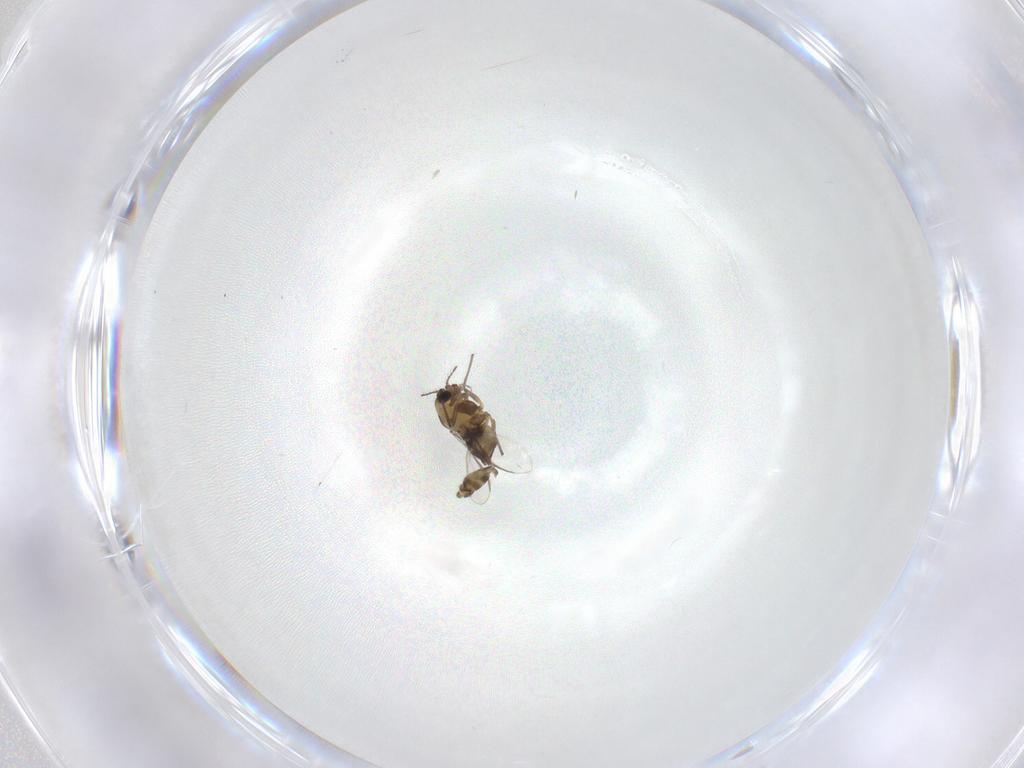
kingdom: Animalia
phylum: Arthropoda
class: Insecta
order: Diptera
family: Chironomidae
